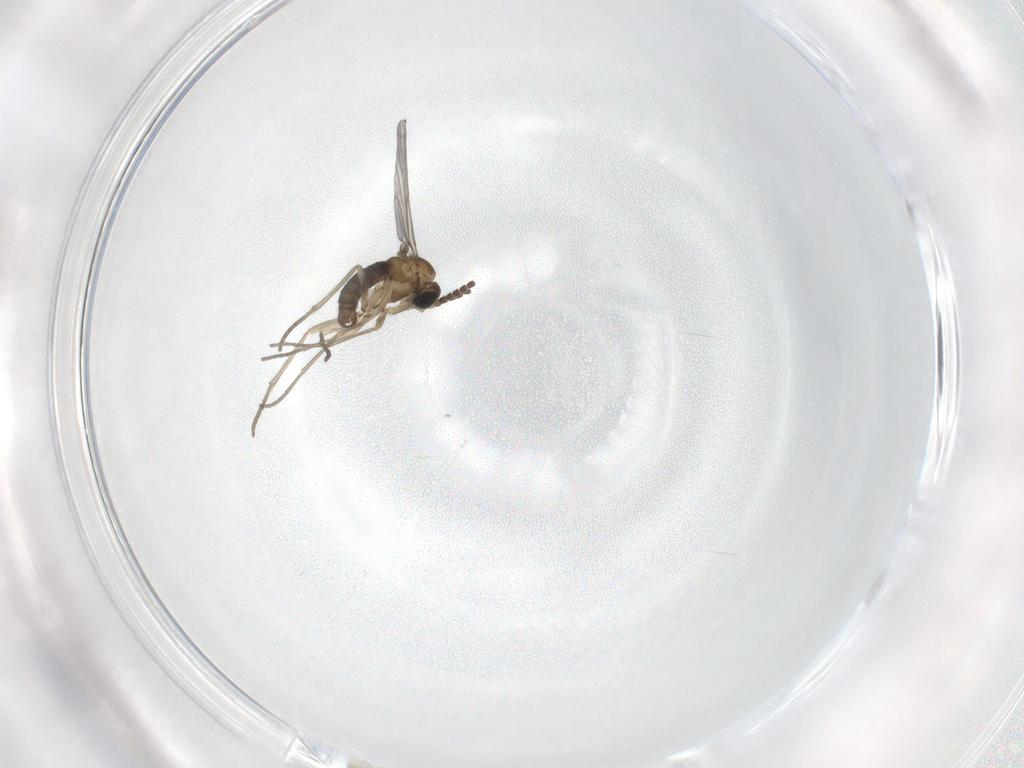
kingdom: Animalia
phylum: Arthropoda
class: Insecta
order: Diptera
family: Sciaridae
